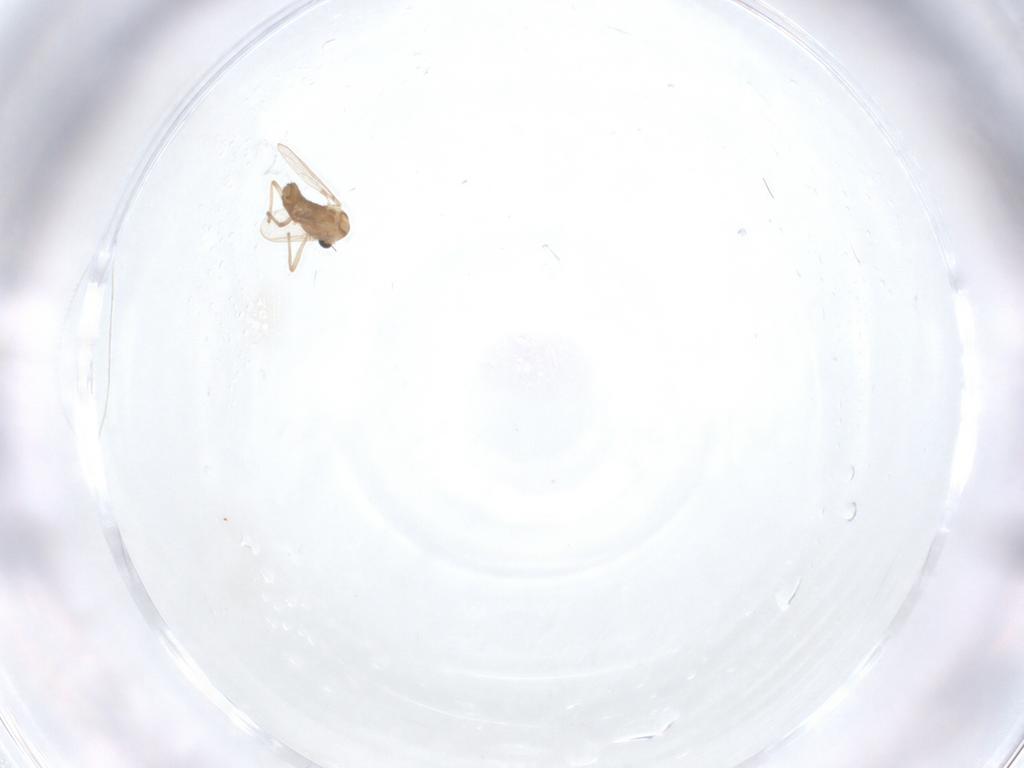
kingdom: Animalia
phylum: Arthropoda
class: Insecta
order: Diptera
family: Chironomidae
